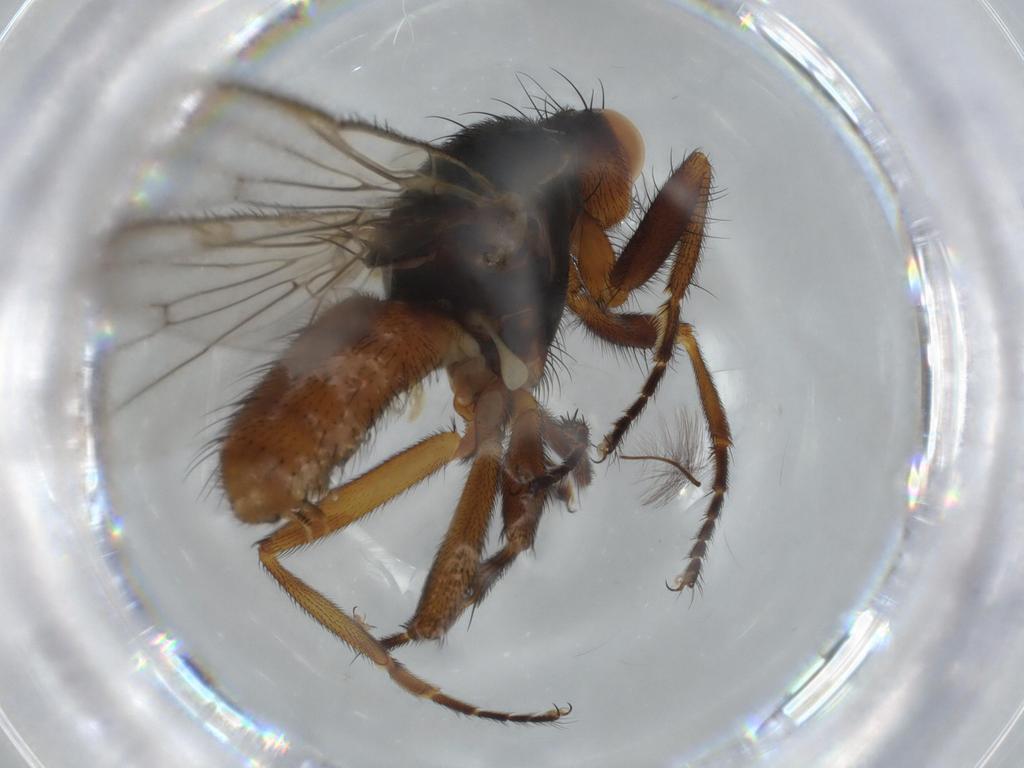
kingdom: Animalia
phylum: Arthropoda
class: Insecta
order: Diptera
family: Heleomyzidae
